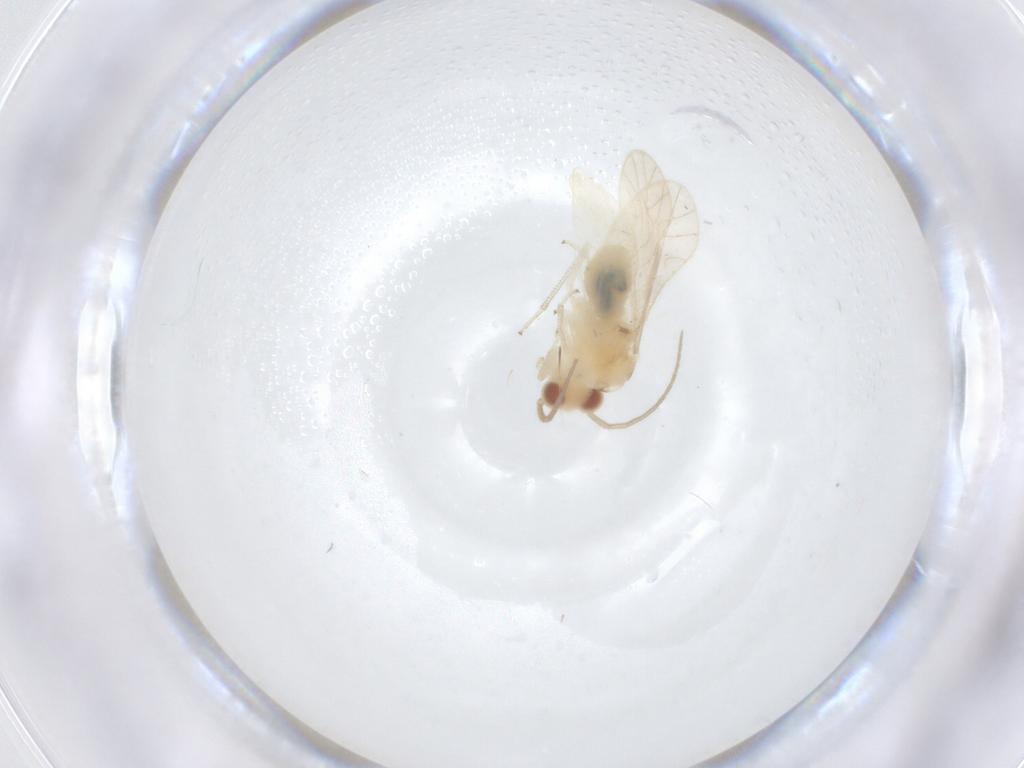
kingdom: Animalia
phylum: Arthropoda
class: Insecta
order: Psocodea
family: Caeciliusidae
